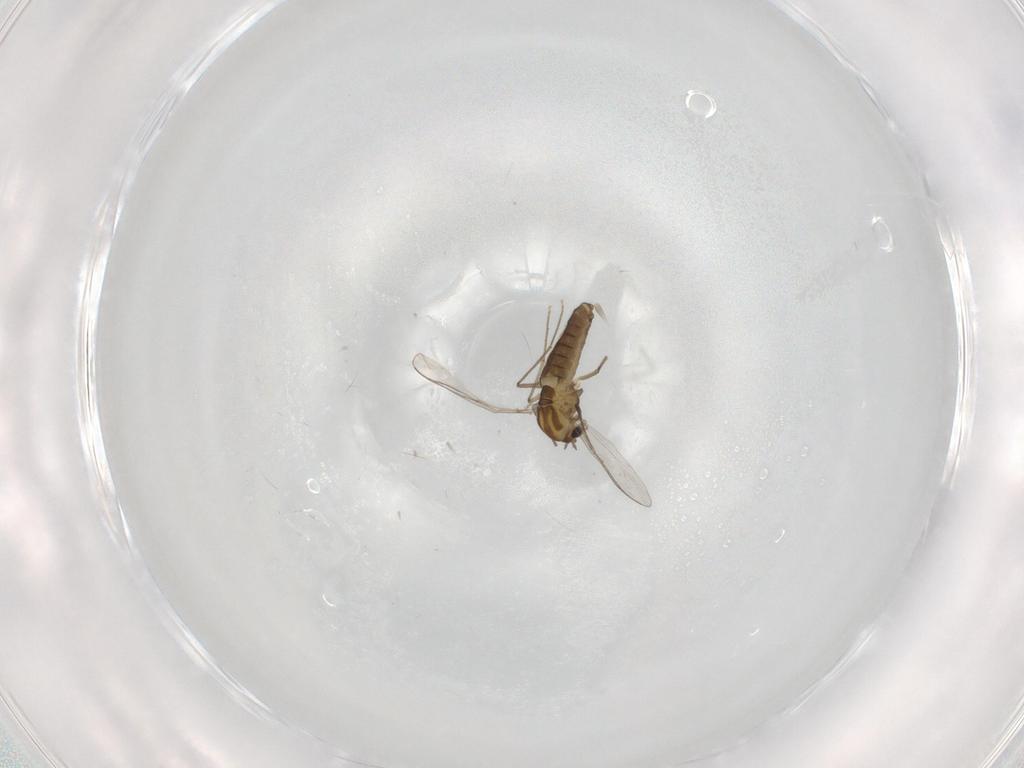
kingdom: Animalia
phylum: Arthropoda
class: Insecta
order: Diptera
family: Chironomidae
